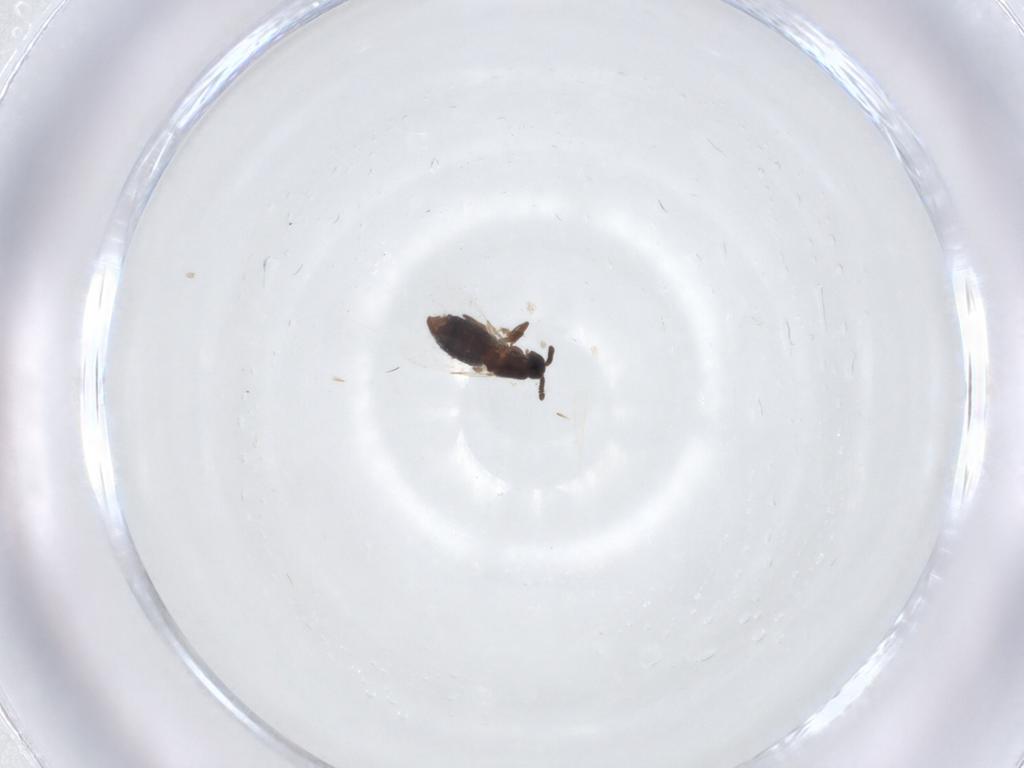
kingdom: Animalia
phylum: Arthropoda
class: Insecta
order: Diptera
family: Scatopsidae
